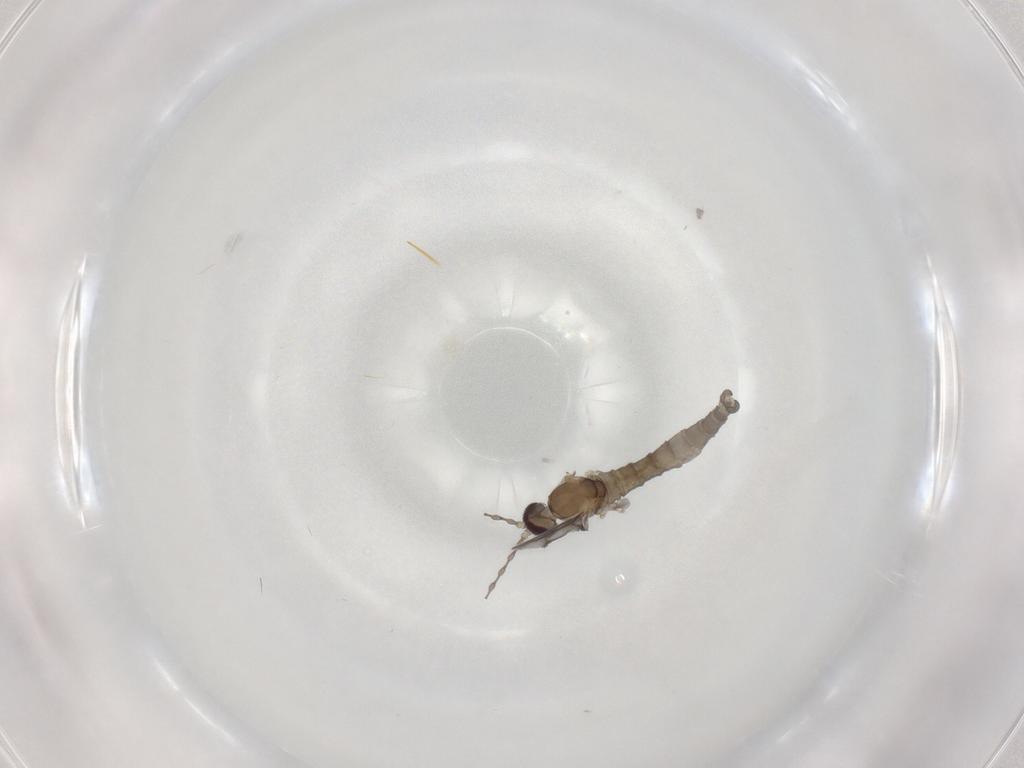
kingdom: Animalia
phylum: Arthropoda
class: Insecta
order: Diptera
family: Cecidomyiidae
